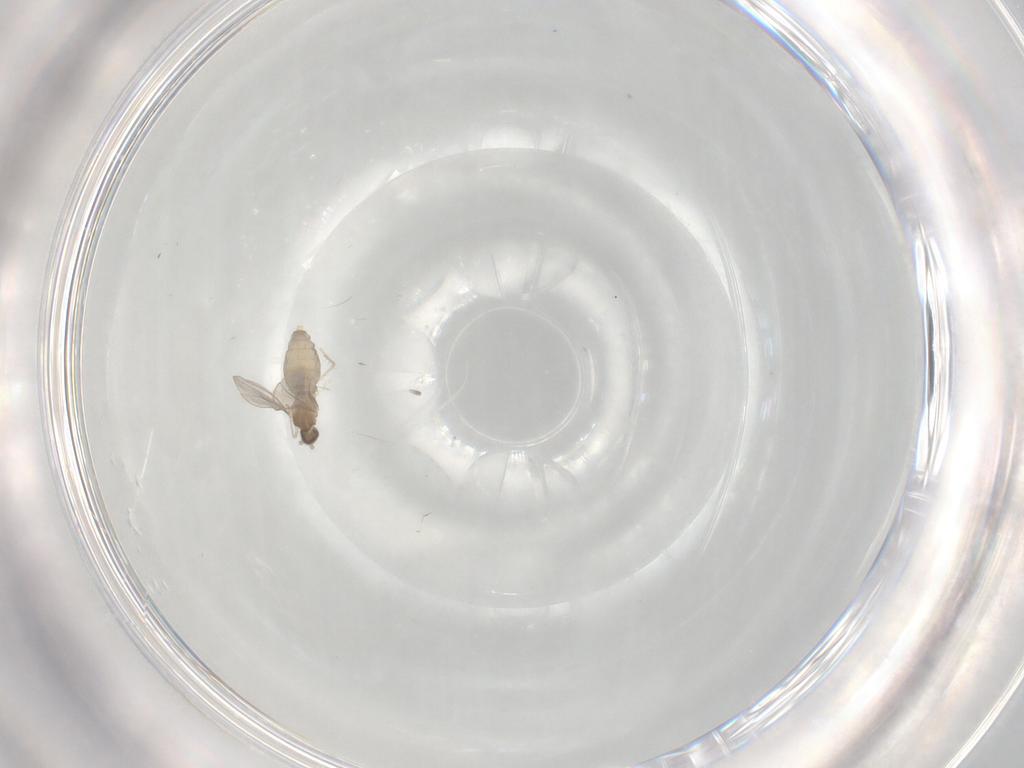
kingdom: Animalia
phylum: Arthropoda
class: Insecta
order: Diptera
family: Cecidomyiidae
